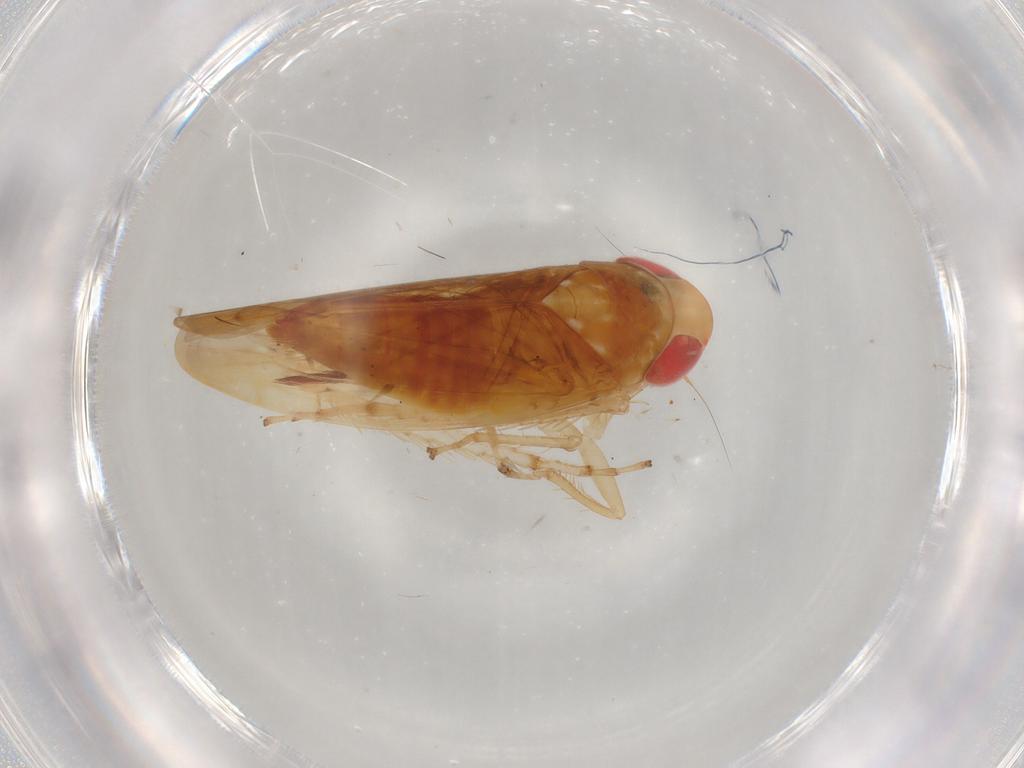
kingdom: Animalia
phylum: Arthropoda
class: Insecta
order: Hemiptera
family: Cicadellidae
